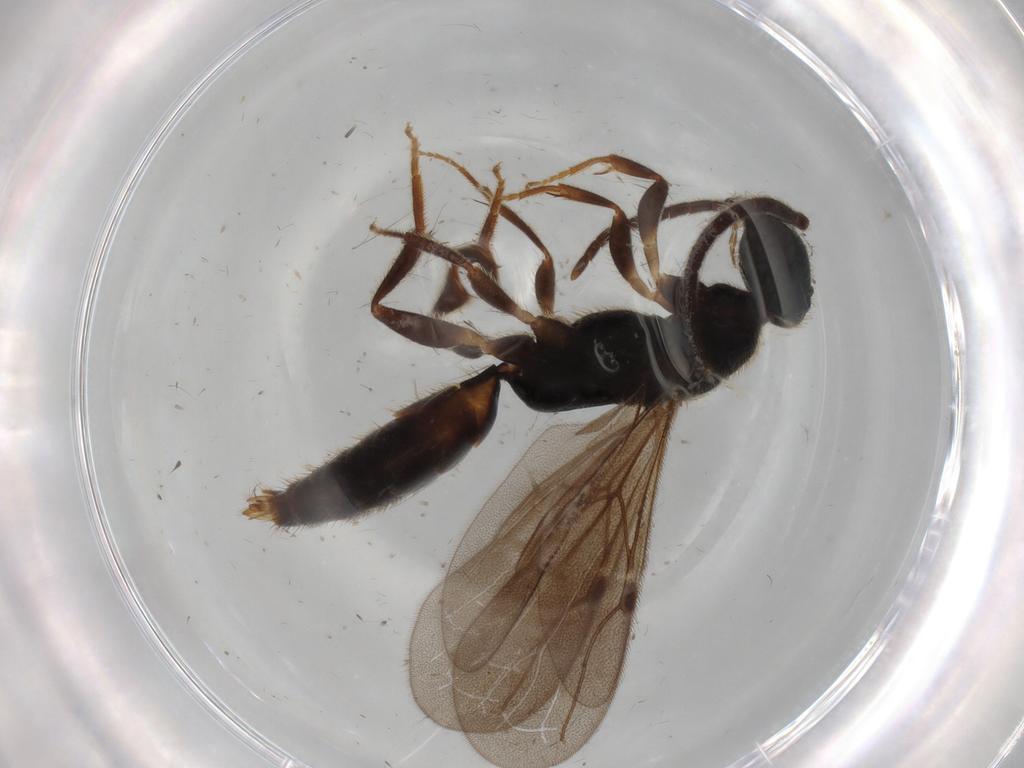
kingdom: Animalia
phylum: Arthropoda
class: Insecta
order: Hymenoptera
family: Bethylidae
